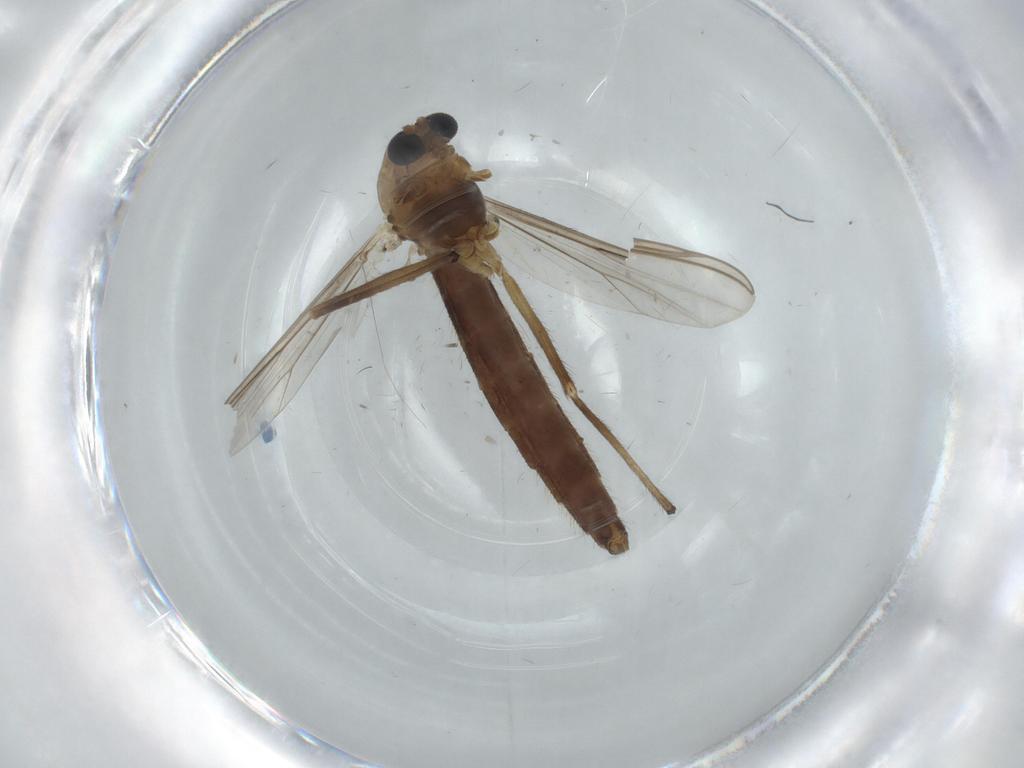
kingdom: Animalia
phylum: Arthropoda
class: Insecta
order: Diptera
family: Chironomidae
